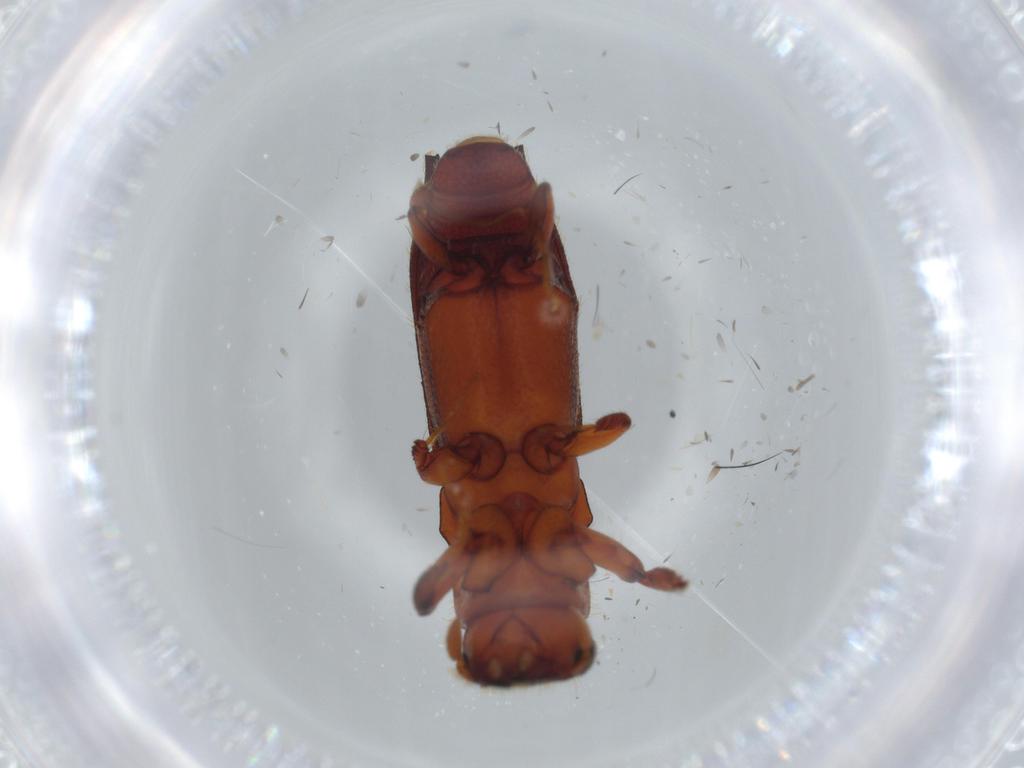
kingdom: Animalia
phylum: Arthropoda
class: Insecta
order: Coleoptera
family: Curculionidae
